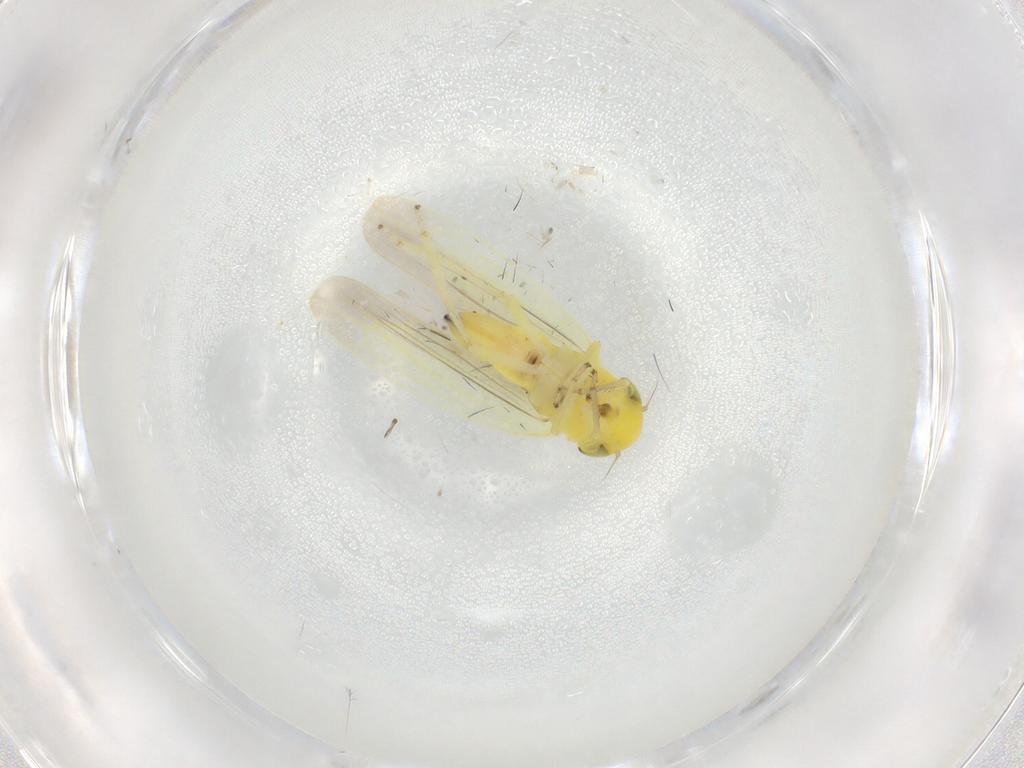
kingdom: Animalia
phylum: Arthropoda
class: Insecta
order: Hemiptera
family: Cicadellidae
